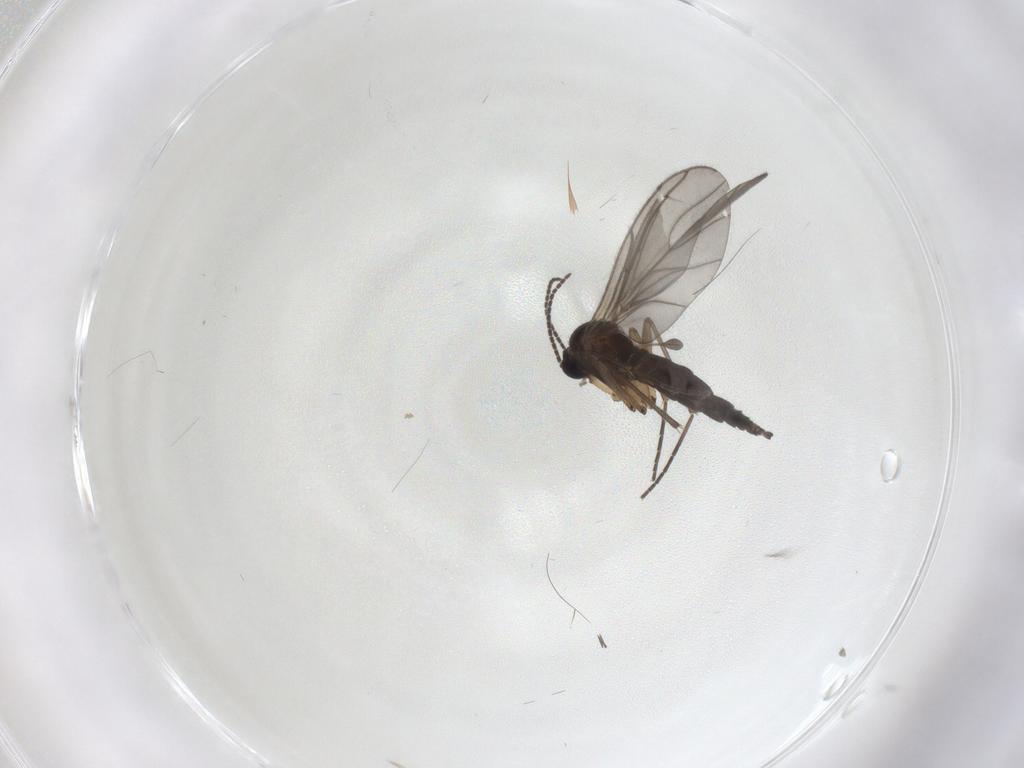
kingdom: Animalia
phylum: Arthropoda
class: Insecta
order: Diptera
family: Sciaridae
